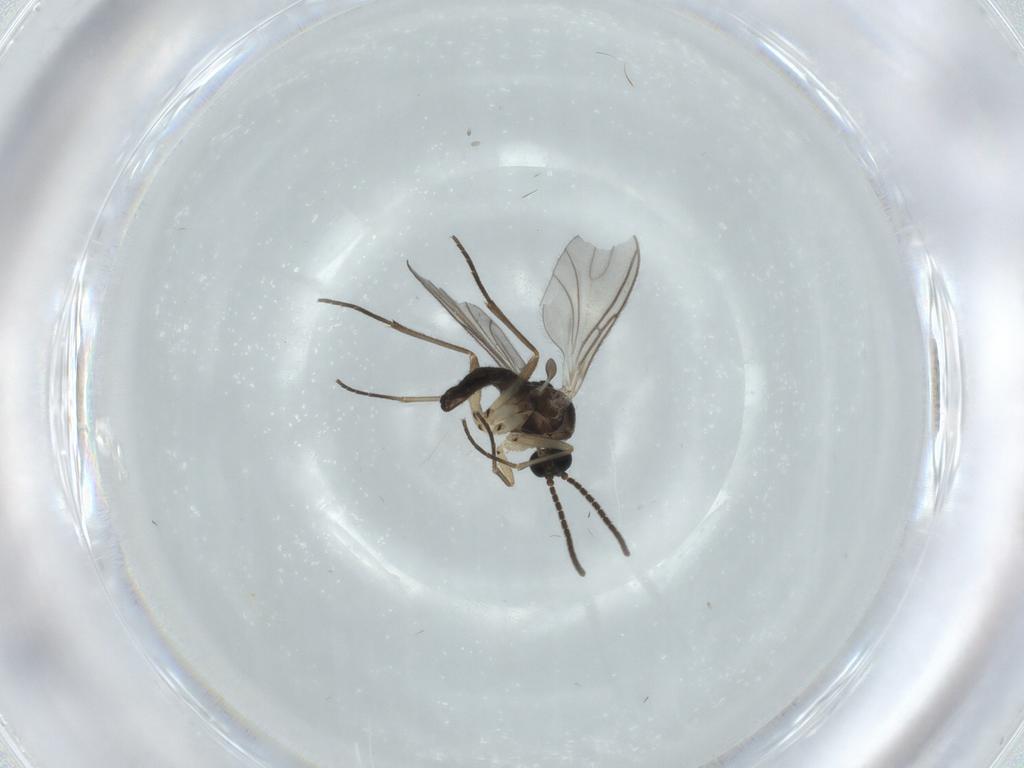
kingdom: Animalia
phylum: Arthropoda
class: Insecta
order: Diptera
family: Sciaridae
